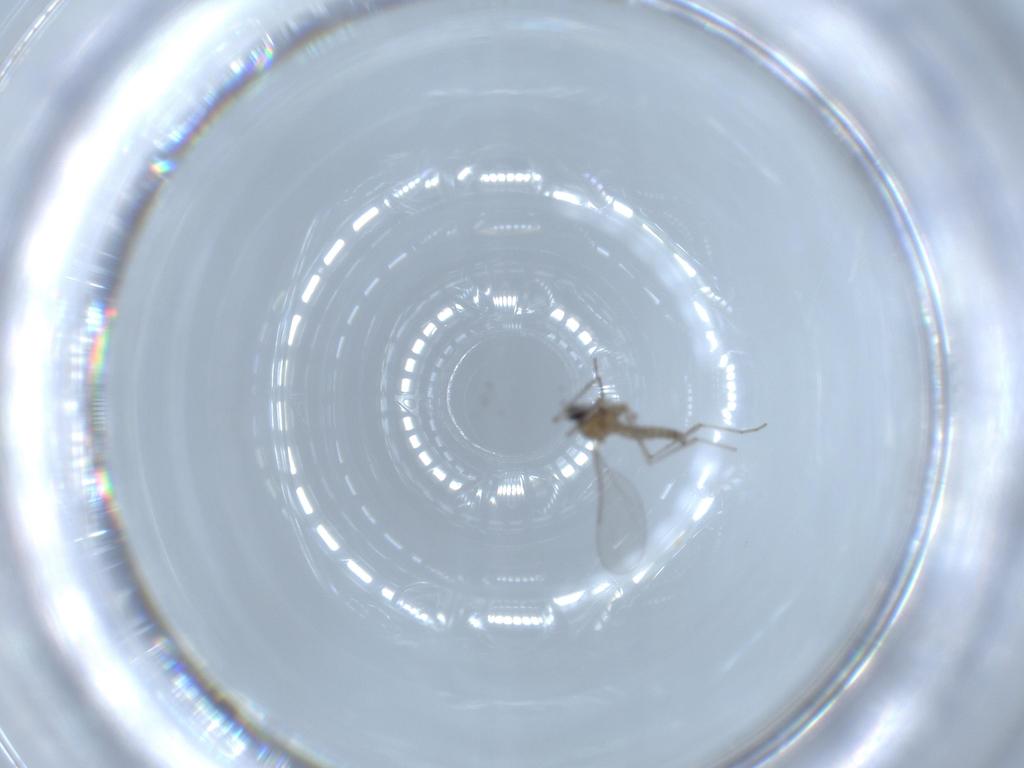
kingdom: Animalia
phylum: Arthropoda
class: Insecta
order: Diptera
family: Cecidomyiidae
